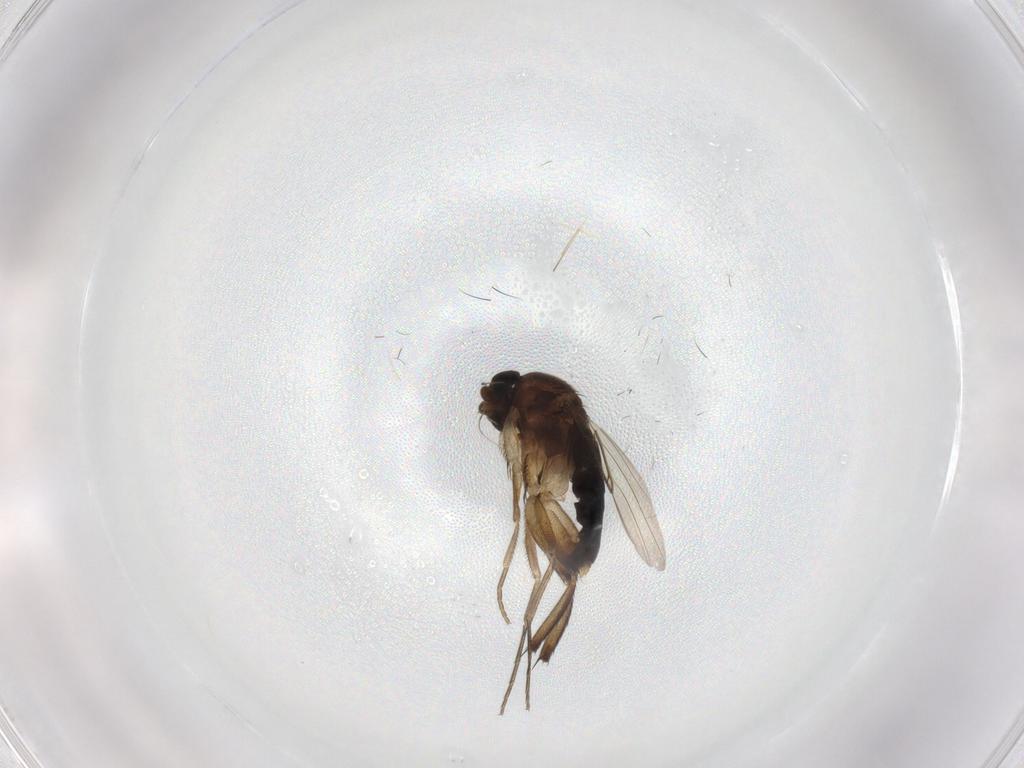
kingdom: Animalia
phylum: Arthropoda
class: Insecta
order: Diptera
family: Phoridae
